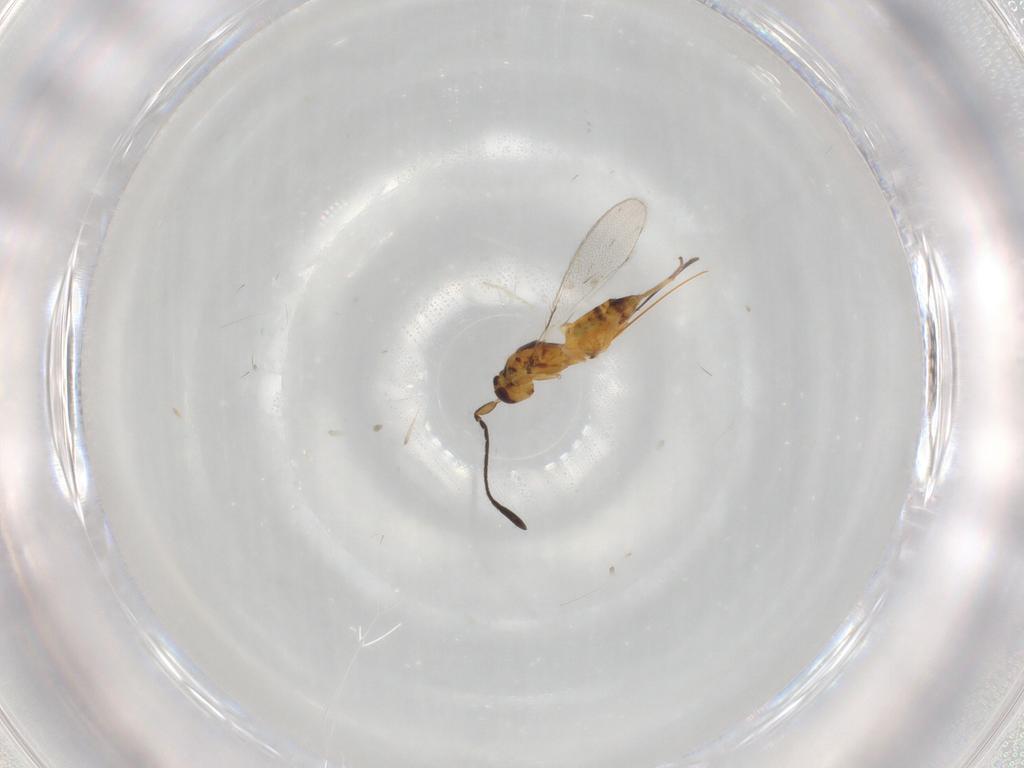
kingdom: Animalia
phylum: Arthropoda
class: Insecta
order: Hymenoptera
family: Mymaridae
